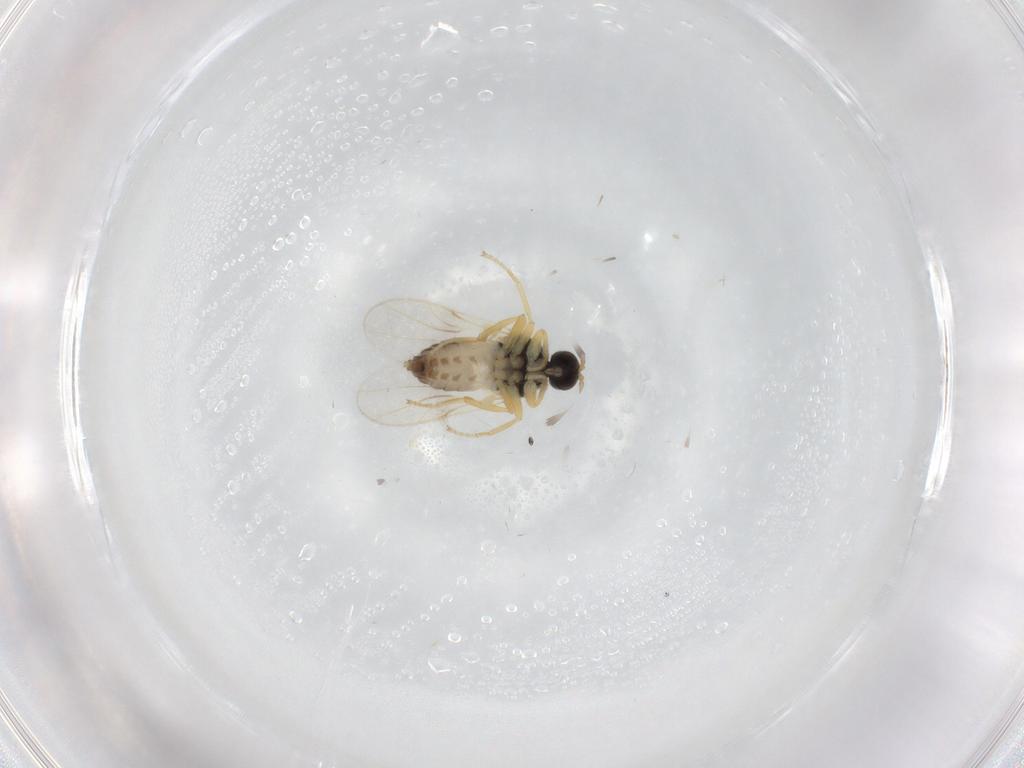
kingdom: Animalia
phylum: Arthropoda
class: Insecta
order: Diptera
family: Hybotidae
